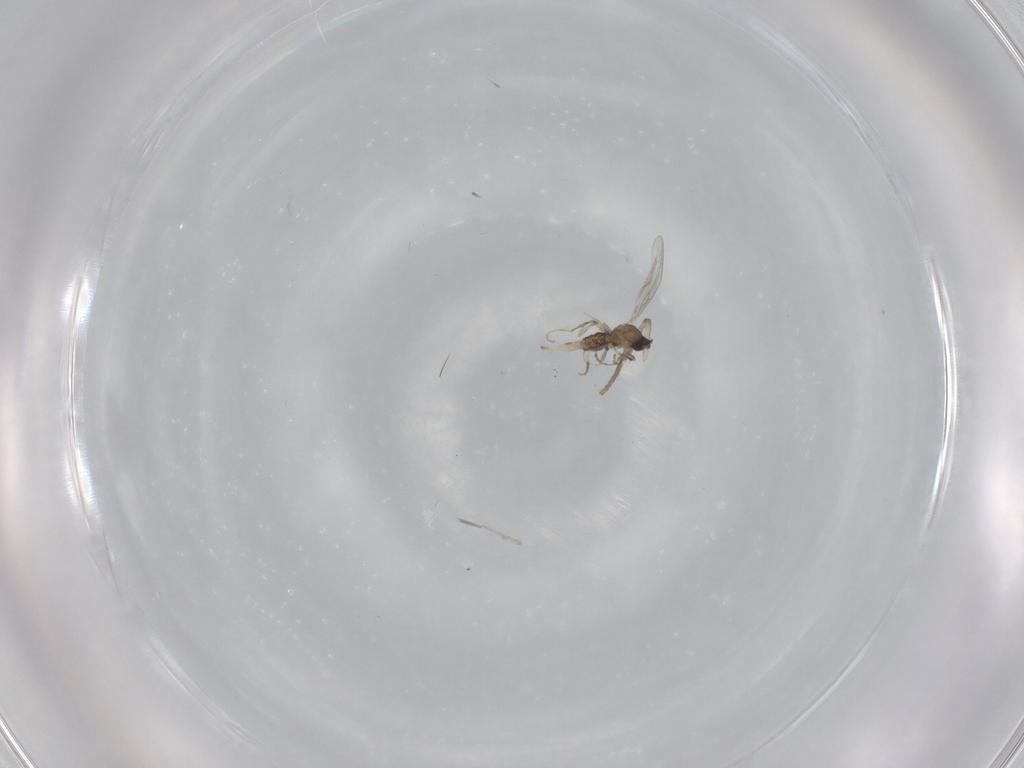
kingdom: Animalia
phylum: Arthropoda
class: Insecta
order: Diptera
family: Cecidomyiidae
